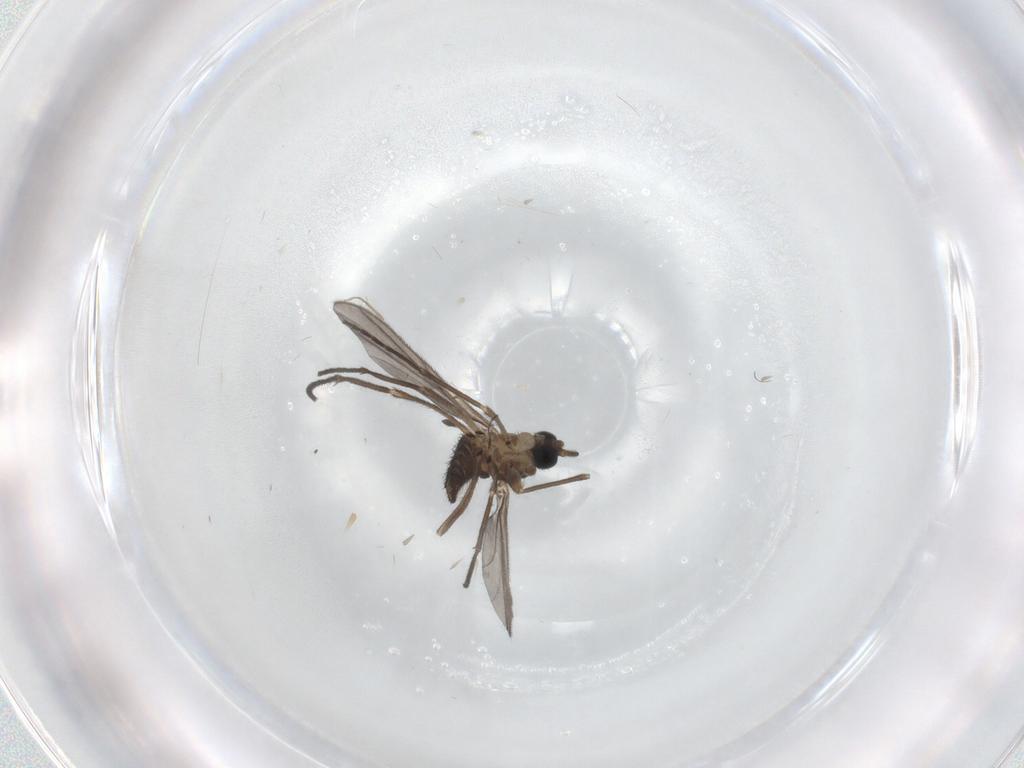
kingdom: Animalia
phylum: Arthropoda
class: Insecta
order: Diptera
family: Sciaridae
